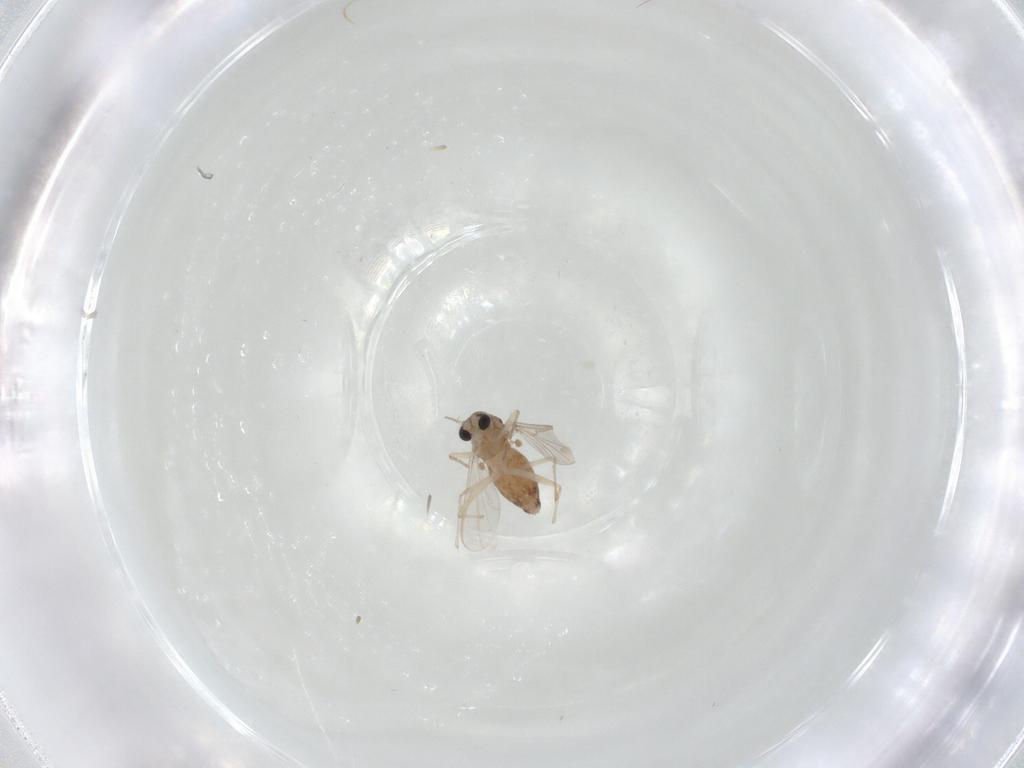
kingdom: Animalia
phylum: Arthropoda
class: Insecta
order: Diptera
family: Chironomidae
